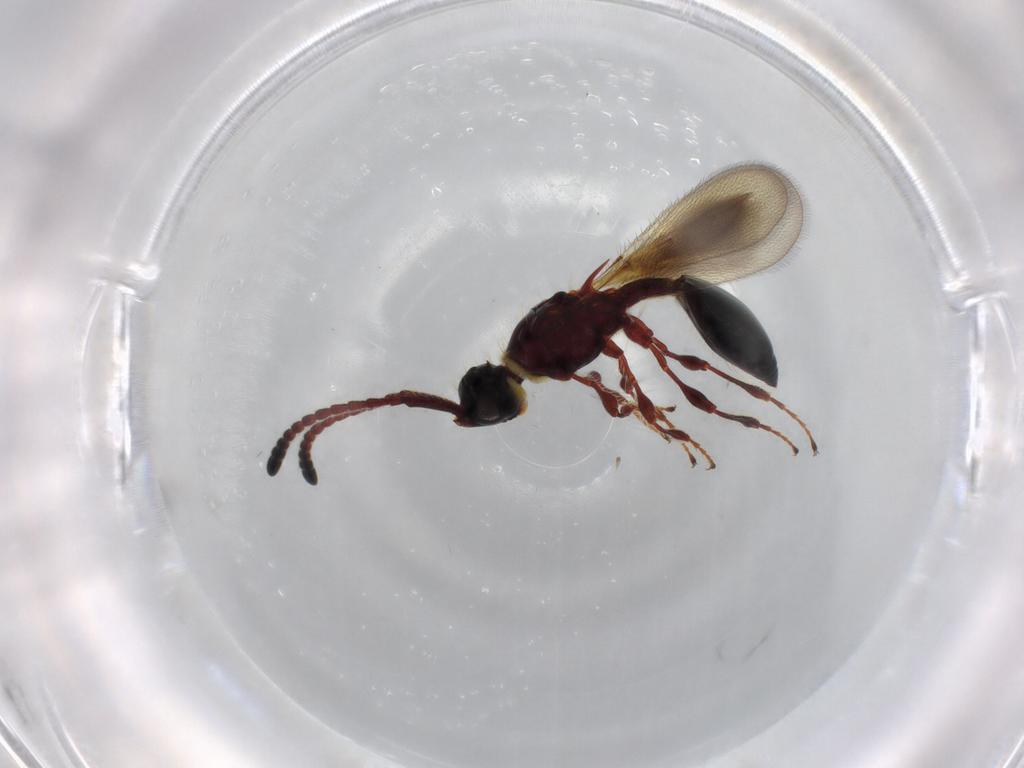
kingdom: Animalia
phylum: Arthropoda
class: Insecta
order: Hymenoptera
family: Diapriidae
